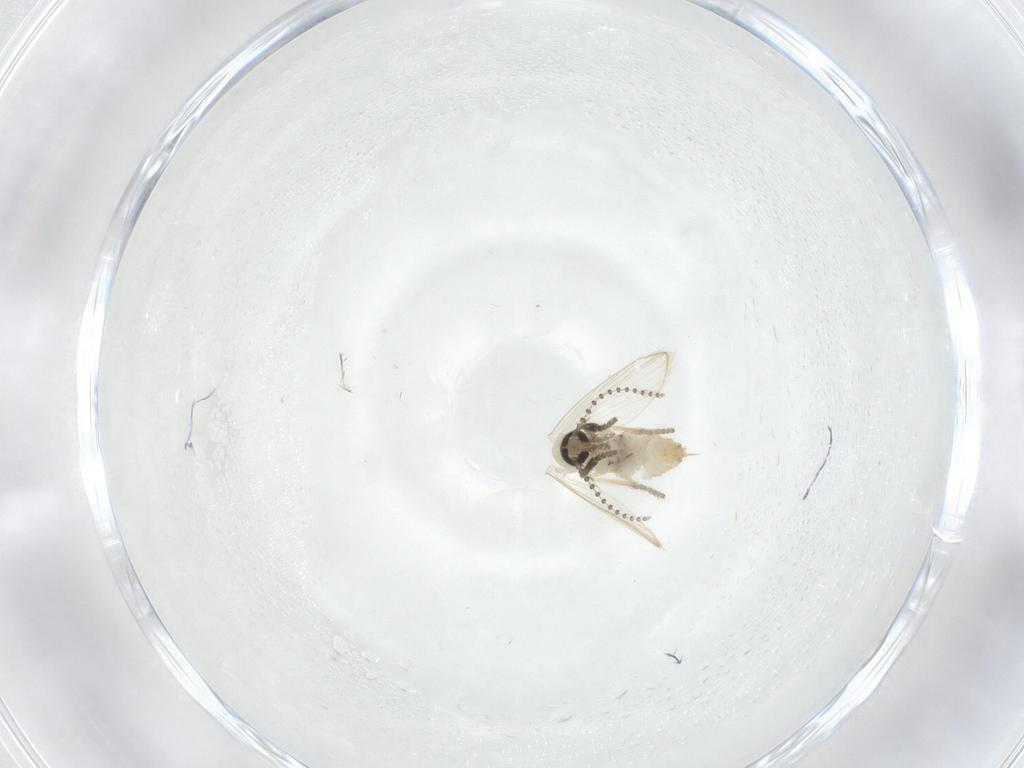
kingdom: Animalia
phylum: Arthropoda
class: Insecta
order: Diptera
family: Psychodidae
